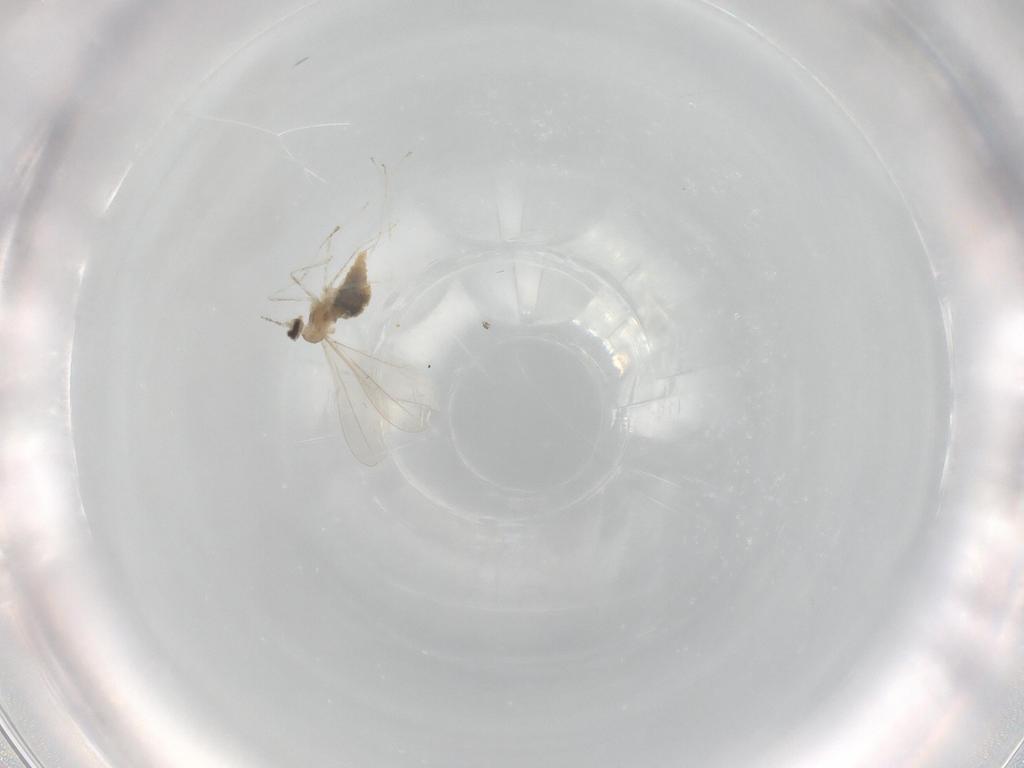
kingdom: Animalia
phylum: Arthropoda
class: Insecta
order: Diptera
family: Cecidomyiidae
